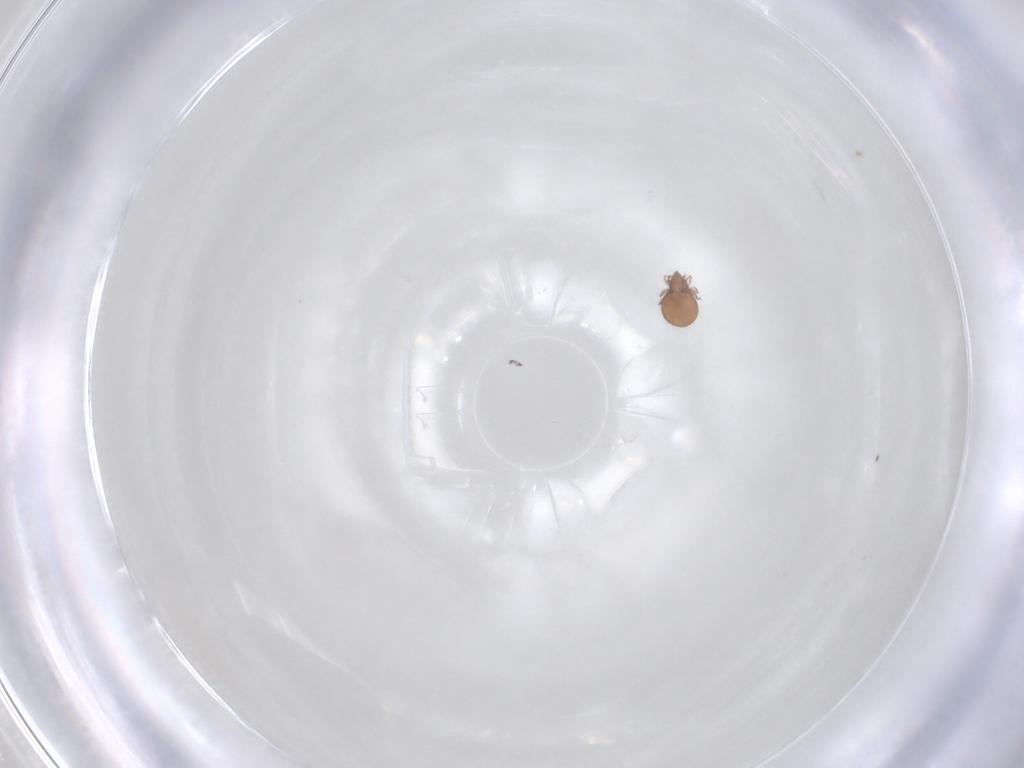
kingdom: Animalia
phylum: Arthropoda
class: Arachnida
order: Sarcoptiformes
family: Oribatulidae
